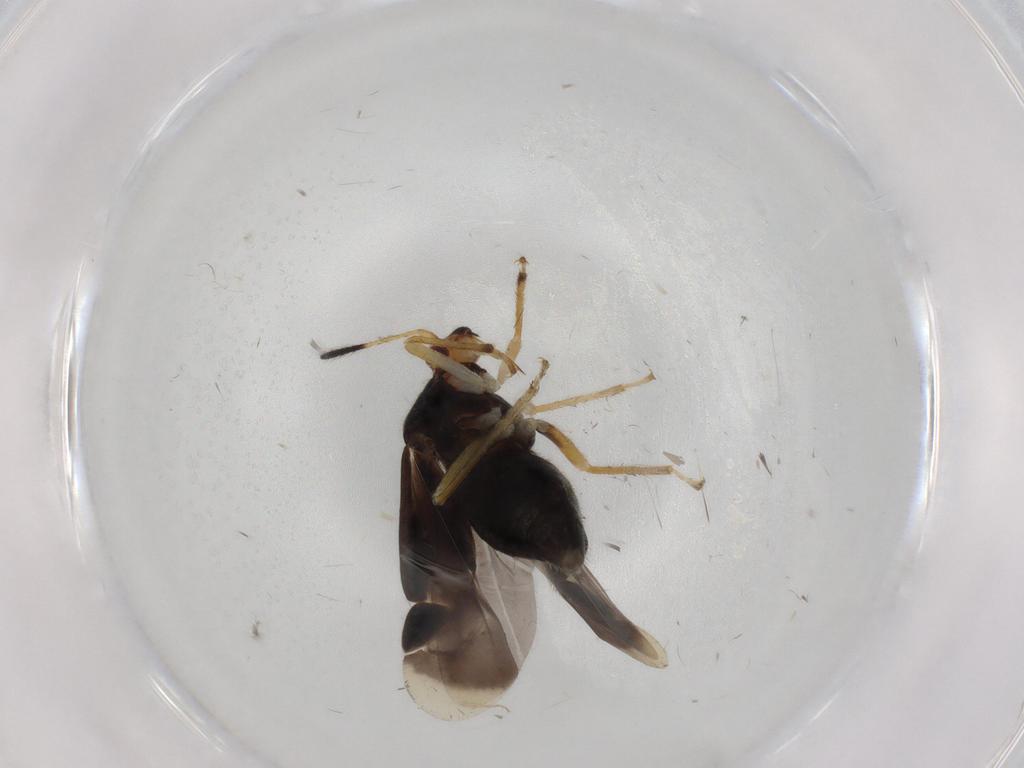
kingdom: Animalia
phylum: Arthropoda
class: Insecta
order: Hemiptera
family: Miridae
